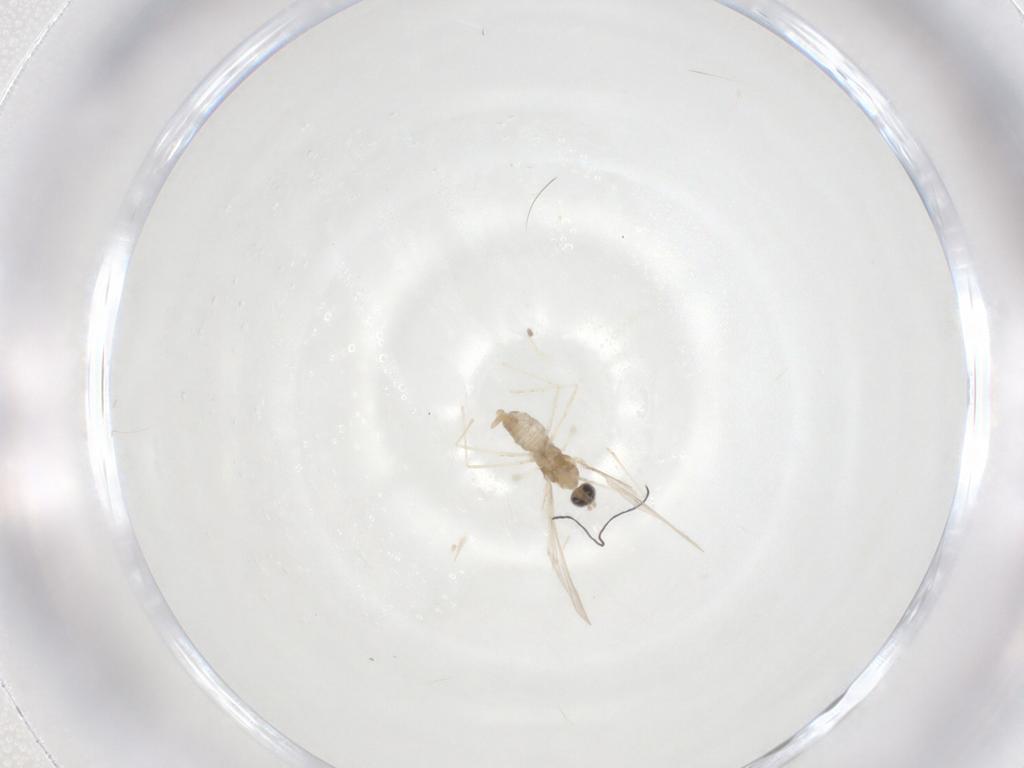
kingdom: Animalia
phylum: Arthropoda
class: Insecta
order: Diptera
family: Cecidomyiidae
